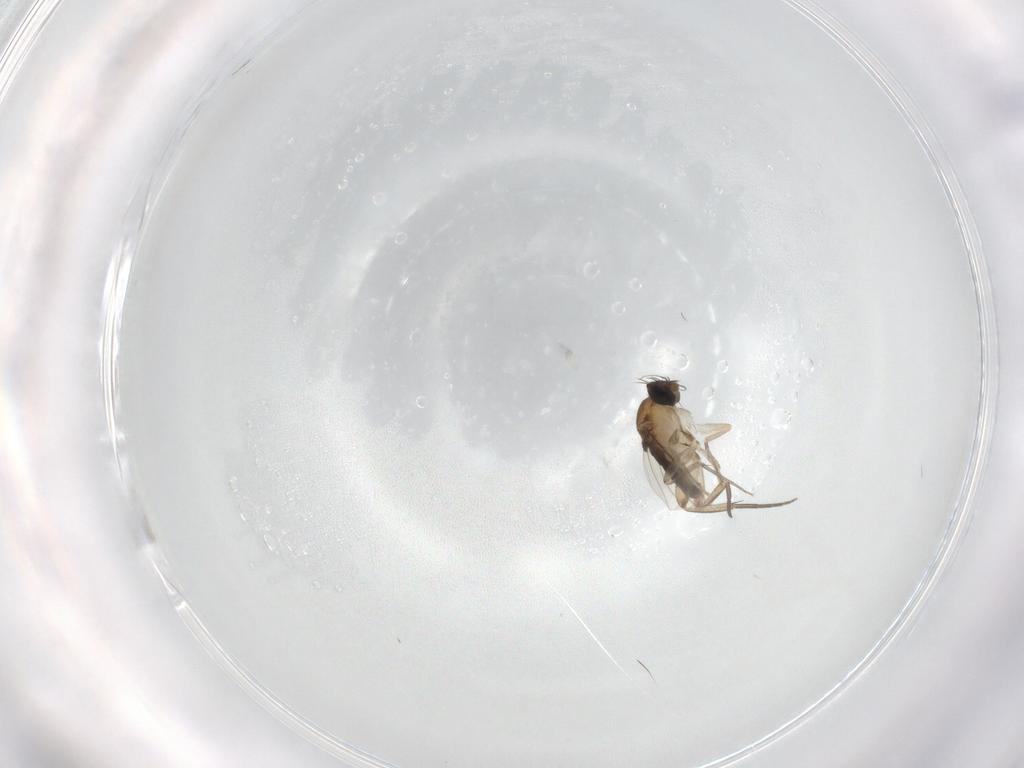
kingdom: Animalia
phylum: Arthropoda
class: Insecta
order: Diptera
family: Phoridae
